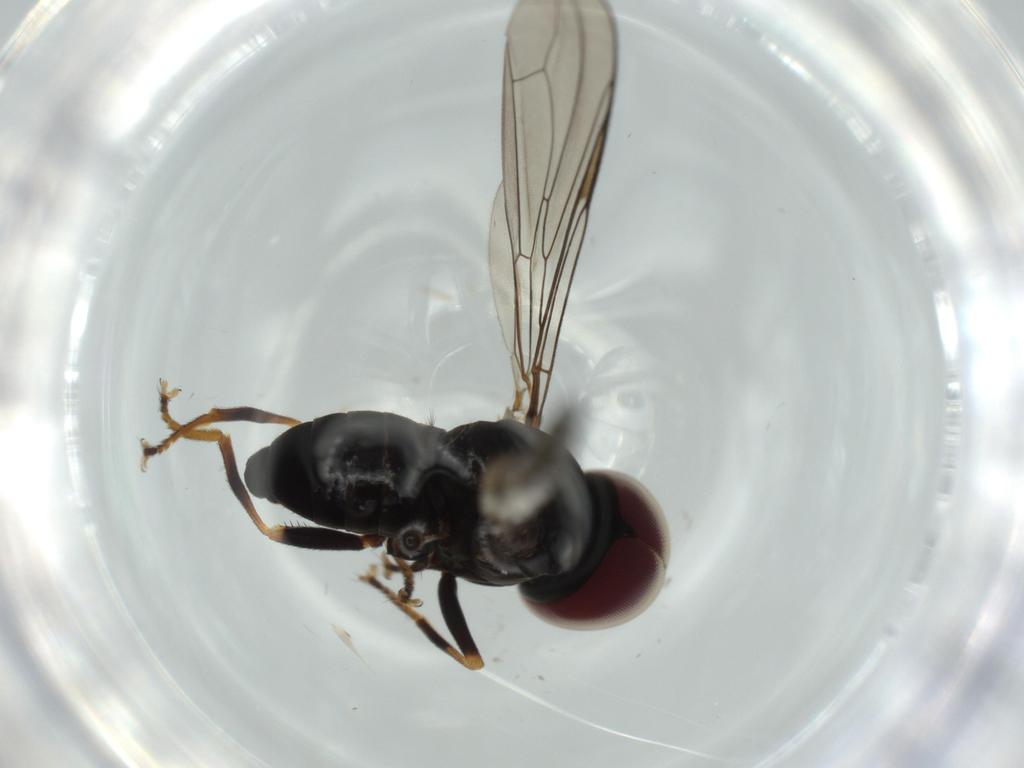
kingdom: Animalia
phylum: Arthropoda
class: Insecta
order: Diptera
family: Pipunculidae
